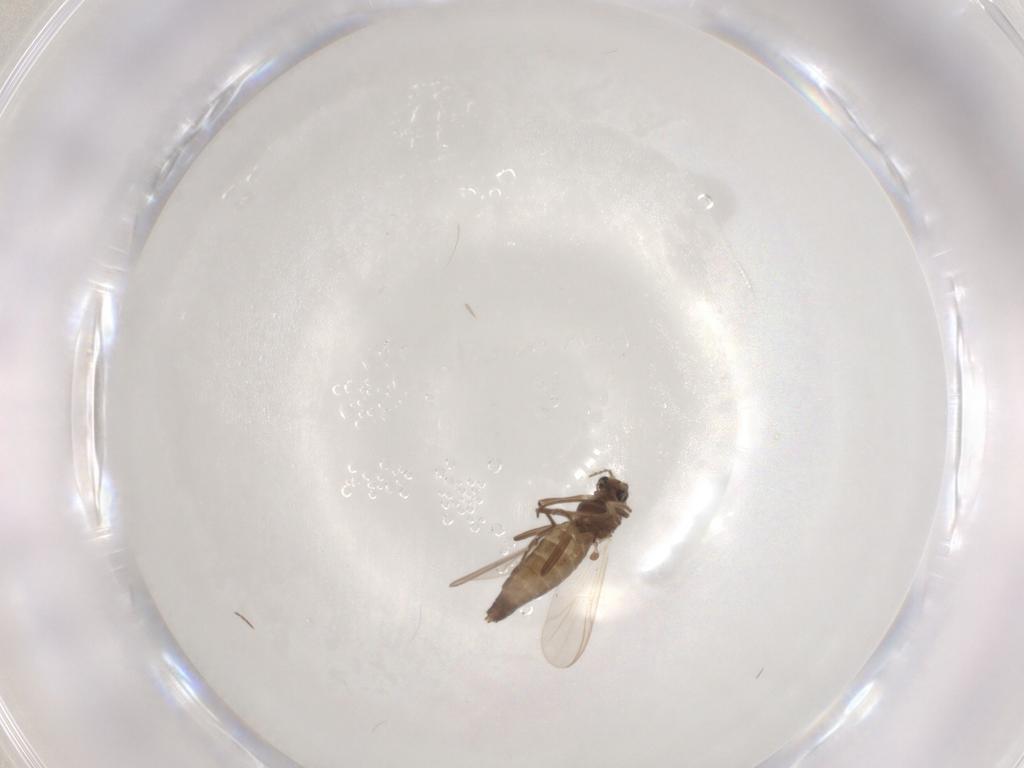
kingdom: Animalia
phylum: Arthropoda
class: Insecta
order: Diptera
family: Chironomidae
